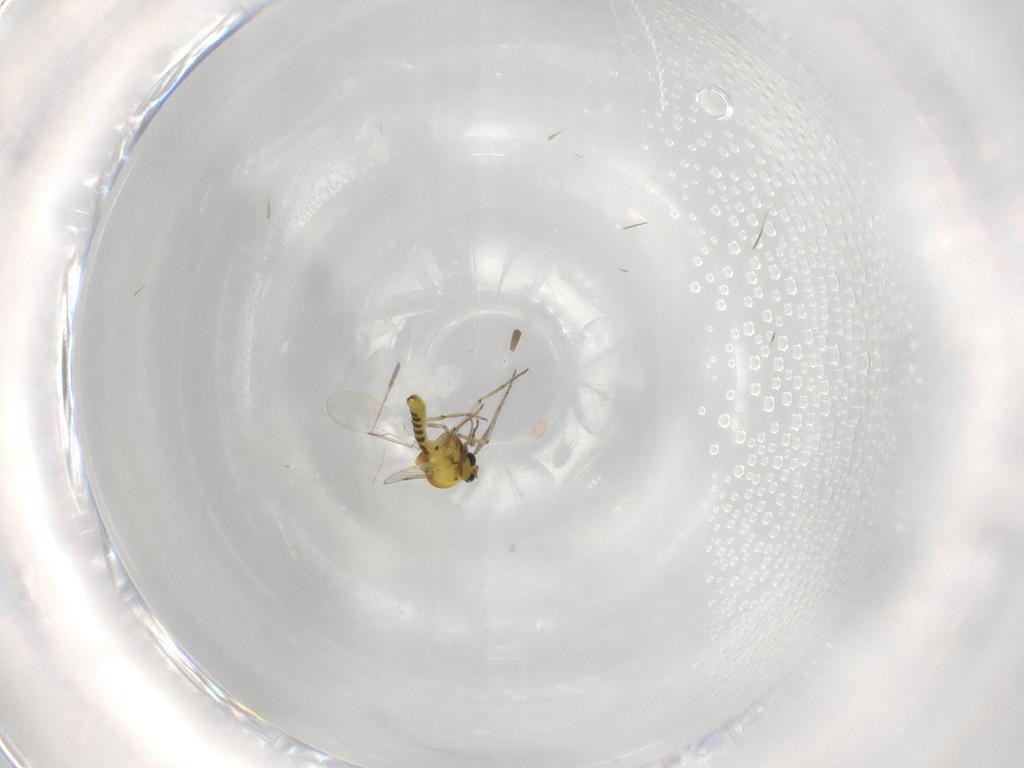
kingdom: Animalia
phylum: Arthropoda
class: Insecta
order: Diptera
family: Ceratopogonidae
